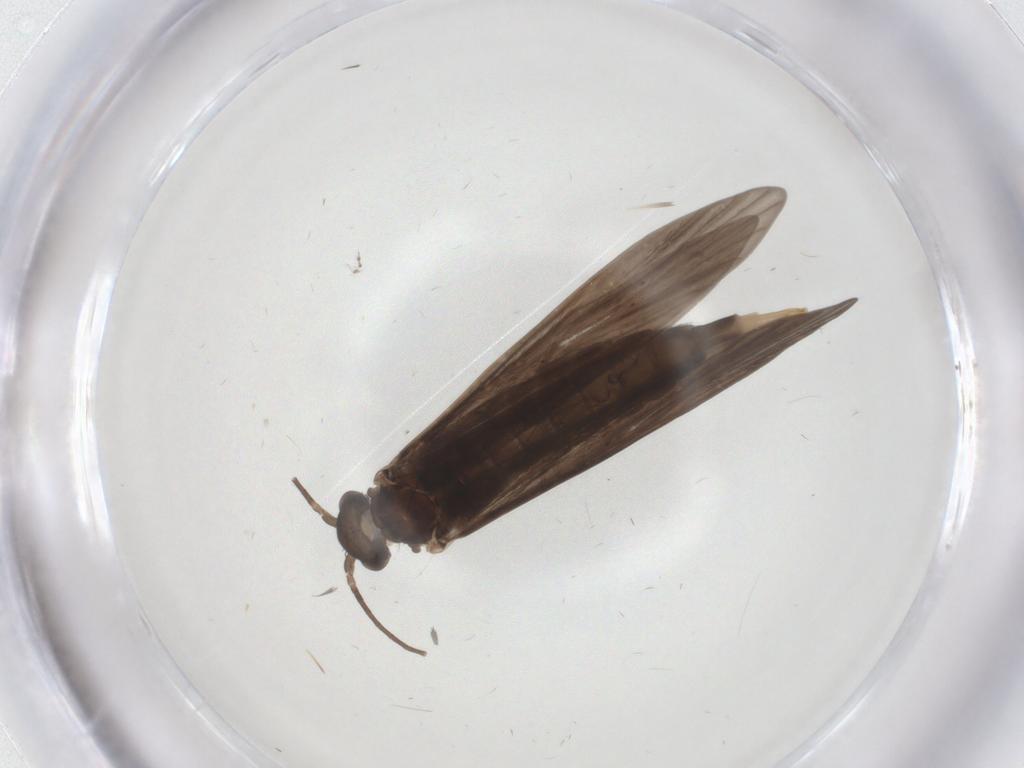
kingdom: Animalia
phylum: Arthropoda
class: Insecta
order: Trichoptera
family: Xiphocentronidae
